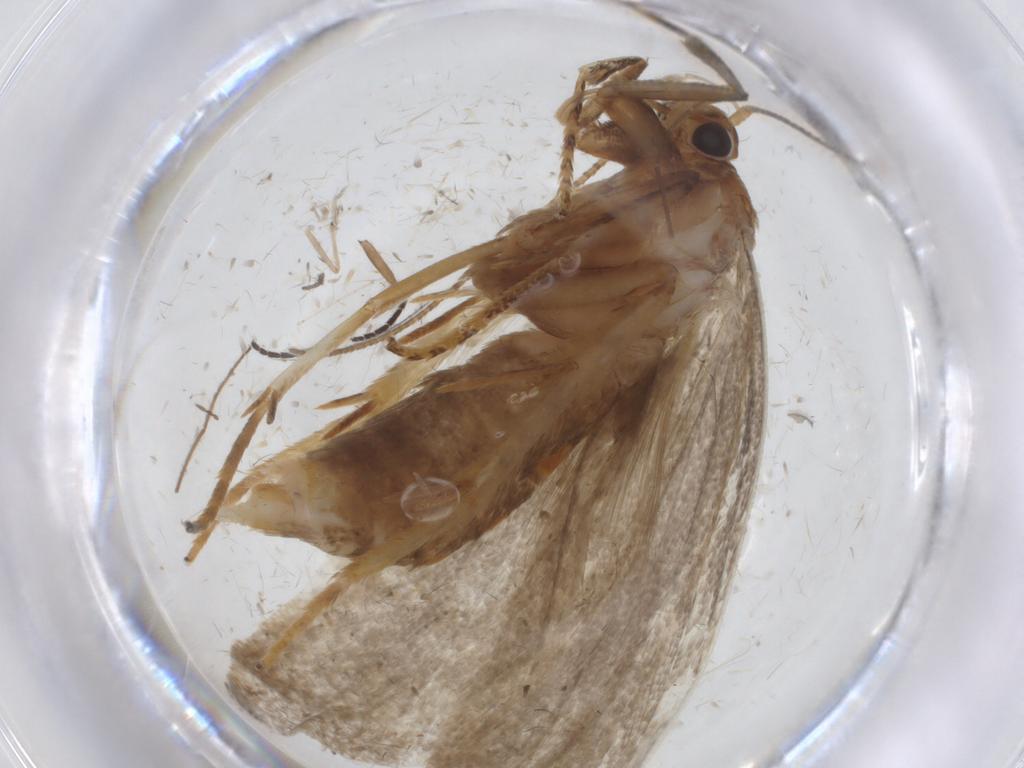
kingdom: Animalia
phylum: Arthropoda
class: Insecta
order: Lepidoptera
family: Oecophoridae
